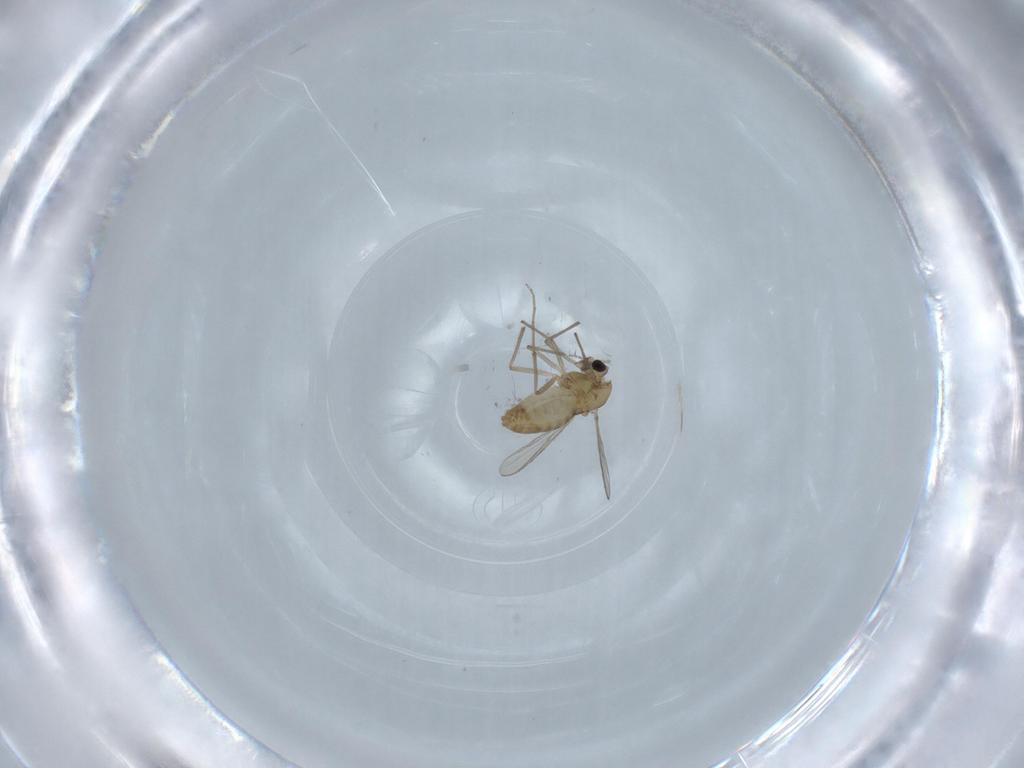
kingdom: Animalia
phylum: Arthropoda
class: Insecta
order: Diptera
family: Chironomidae
